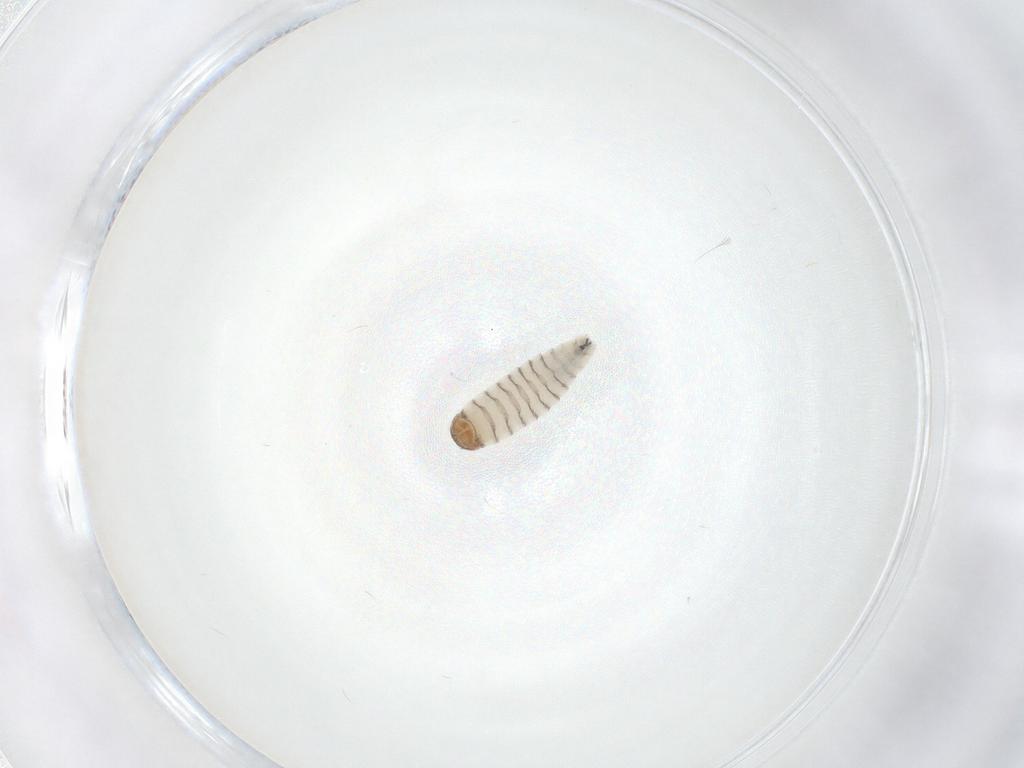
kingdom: Animalia
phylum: Arthropoda
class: Insecta
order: Diptera
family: Sarcophagidae
